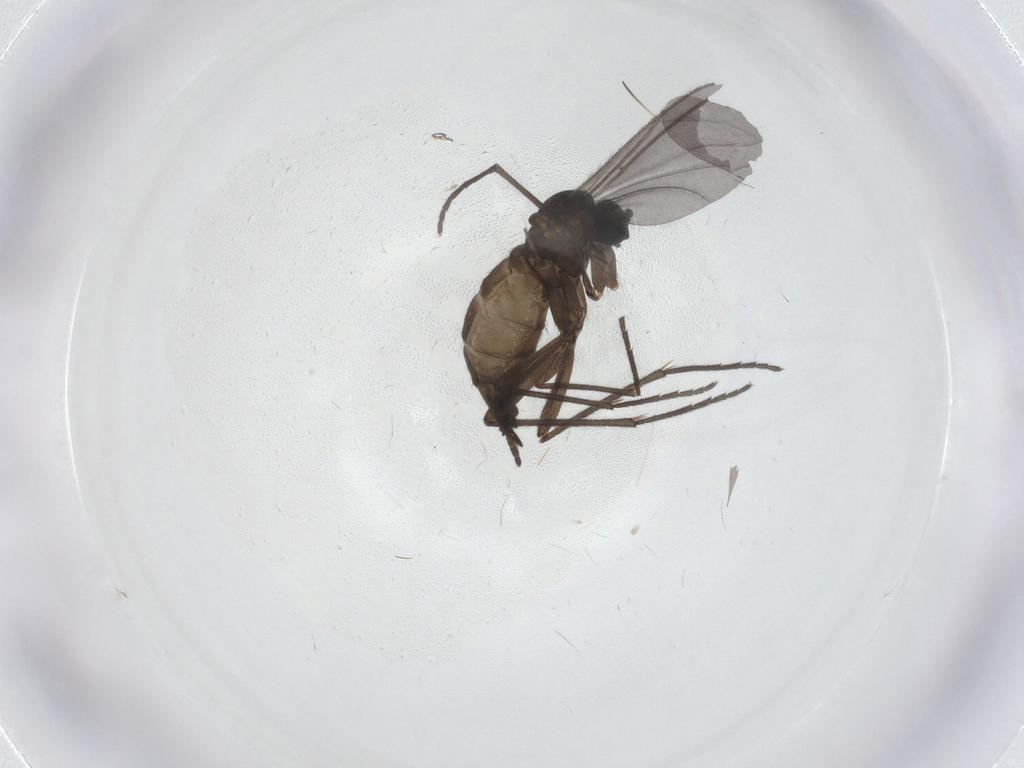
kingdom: Animalia
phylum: Arthropoda
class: Insecta
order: Diptera
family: Sciaridae
